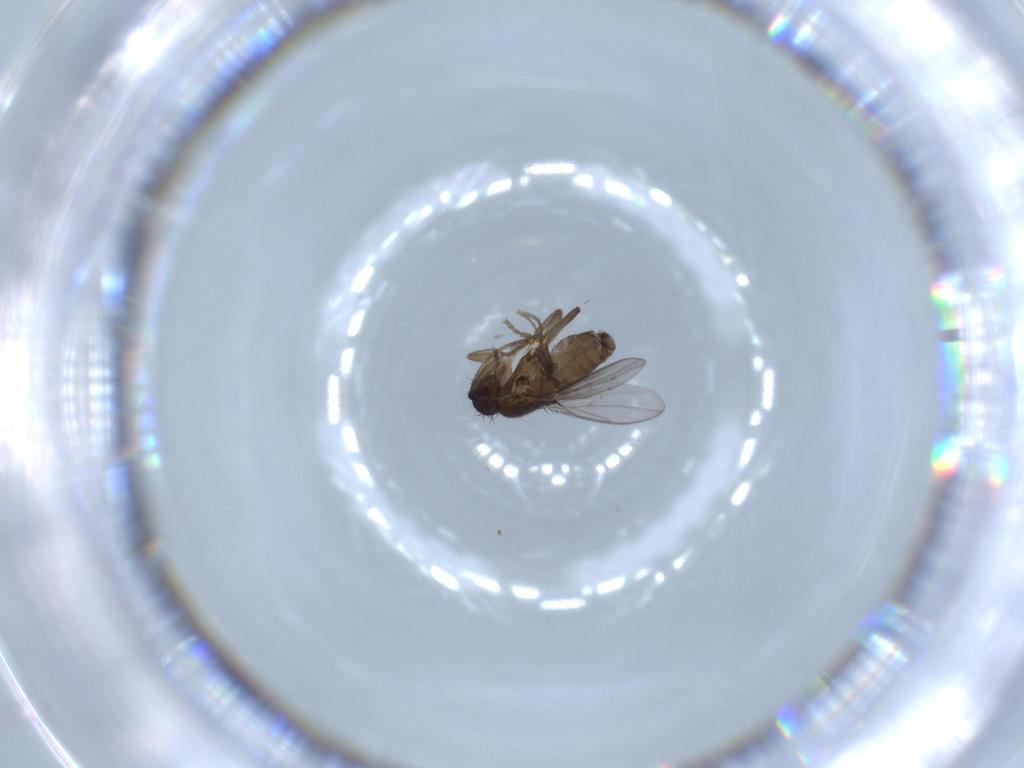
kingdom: Animalia
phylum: Arthropoda
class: Insecta
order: Diptera
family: Sphaeroceridae
